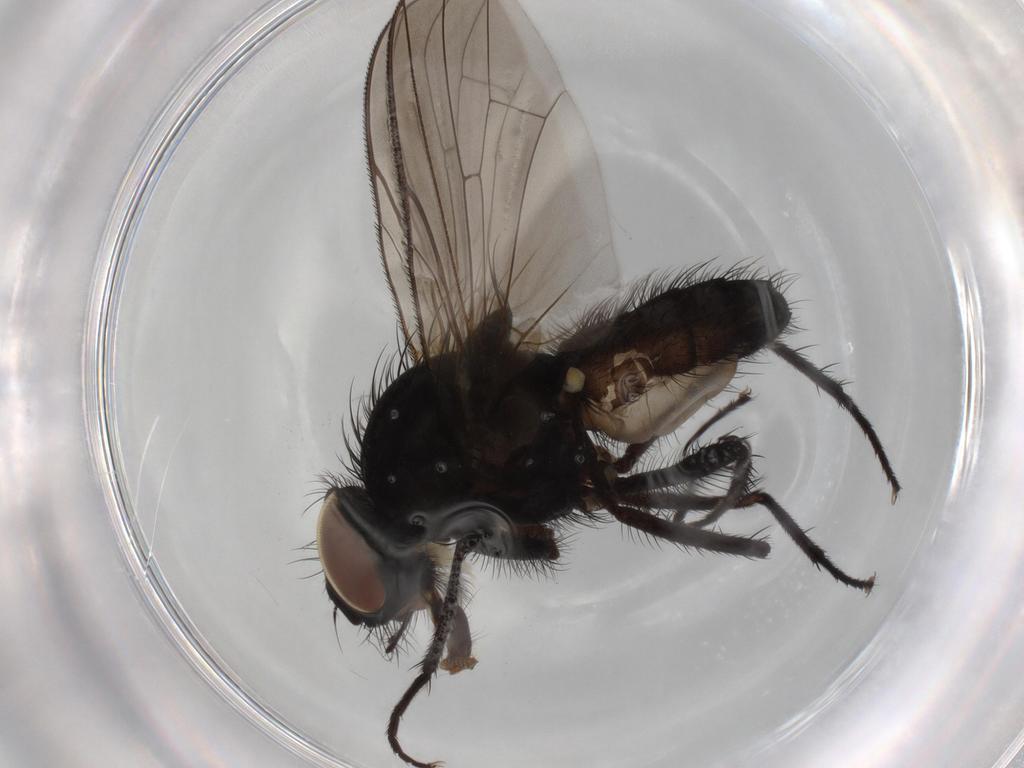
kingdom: Animalia
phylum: Arthropoda
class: Insecta
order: Diptera
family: Anthomyiidae
